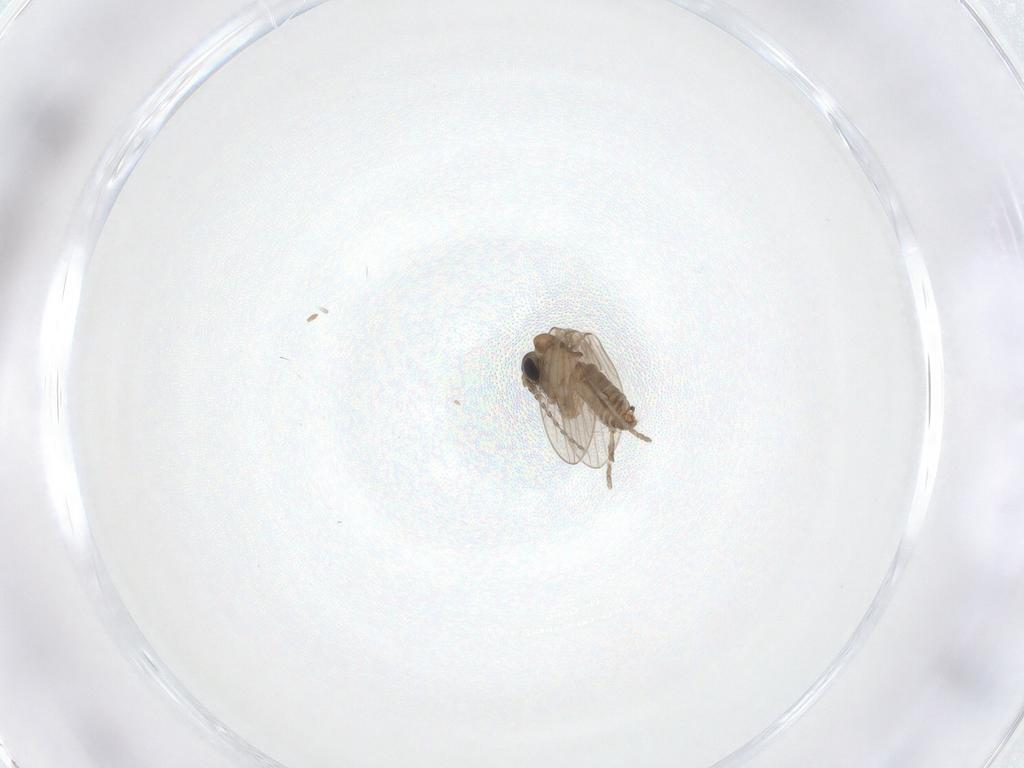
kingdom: Animalia
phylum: Arthropoda
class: Insecta
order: Diptera
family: Psychodidae
